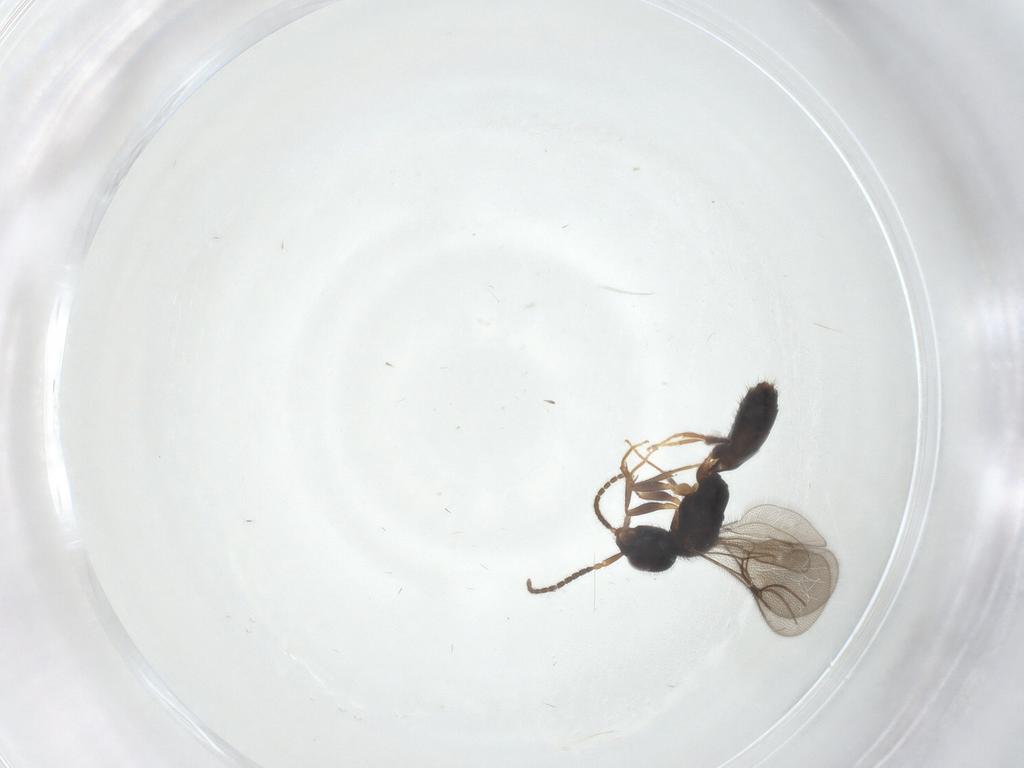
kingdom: Animalia
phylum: Arthropoda
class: Insecta
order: Hymenoptera
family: Bethylidae
